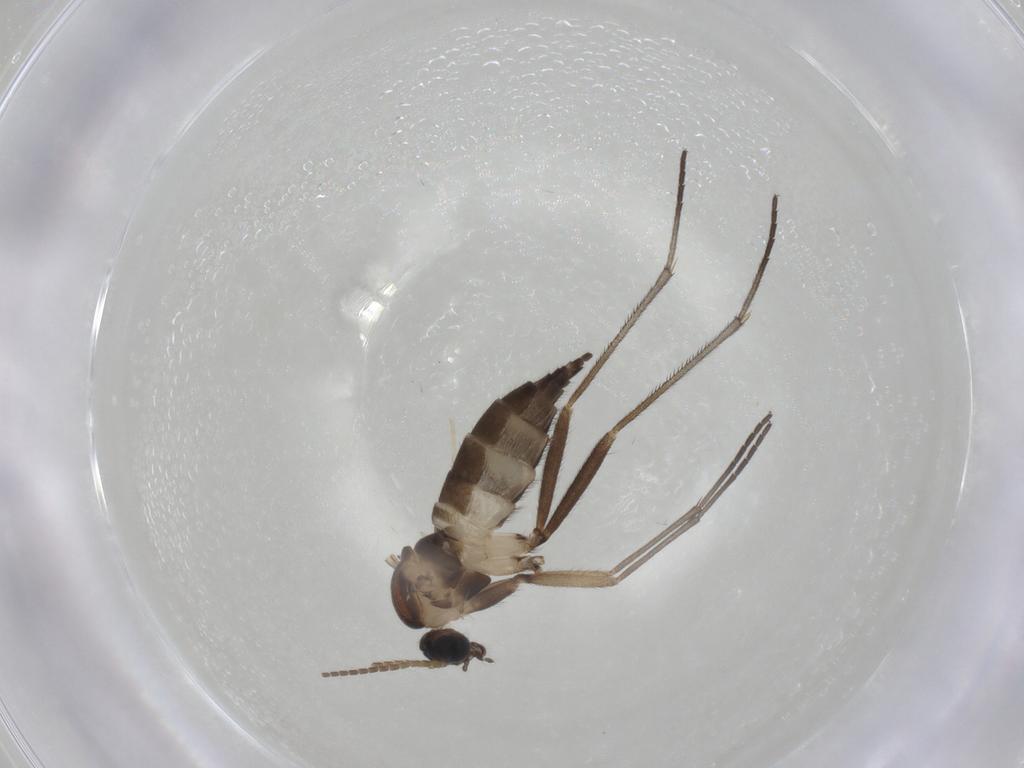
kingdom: Animalia
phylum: Arthropoda
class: Insecta
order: Diptera
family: Sciaridae
